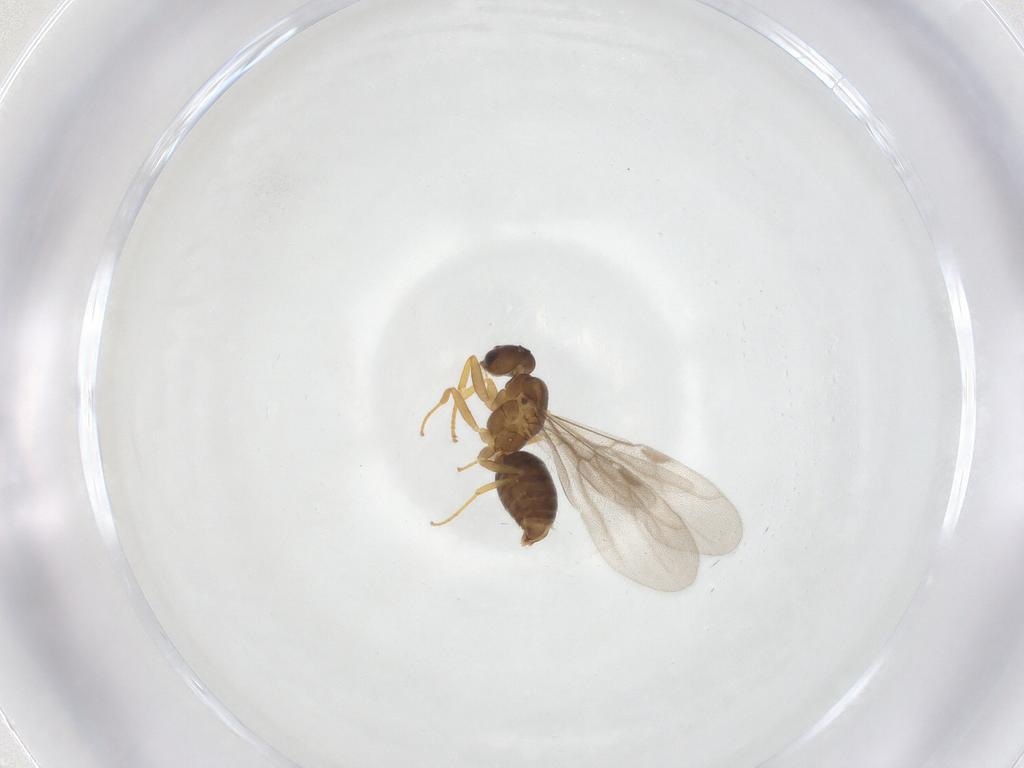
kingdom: Animalia
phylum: Arthropoda
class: Insecta
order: Hymenoptera
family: Formicidae
